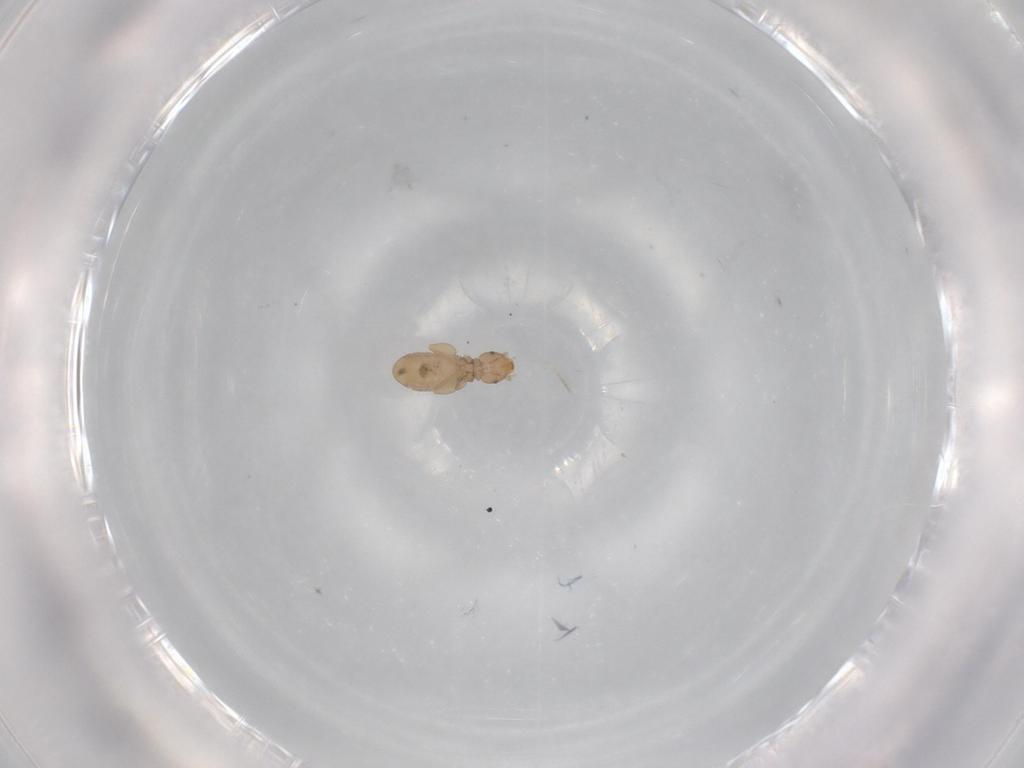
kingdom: Animalia
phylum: Arthropoda
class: Insecta
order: Psocodea
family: Liposcelididae
